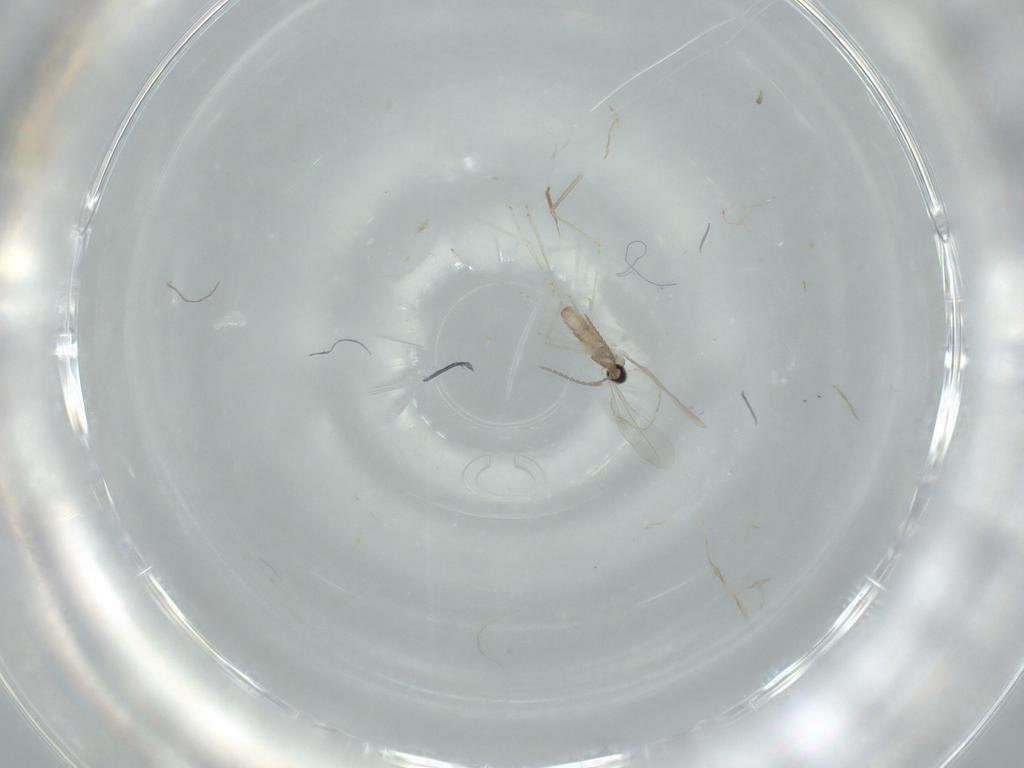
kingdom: Animalia
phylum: Arthropoda
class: Insecta
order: Diptera
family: Cecidomyiidae
